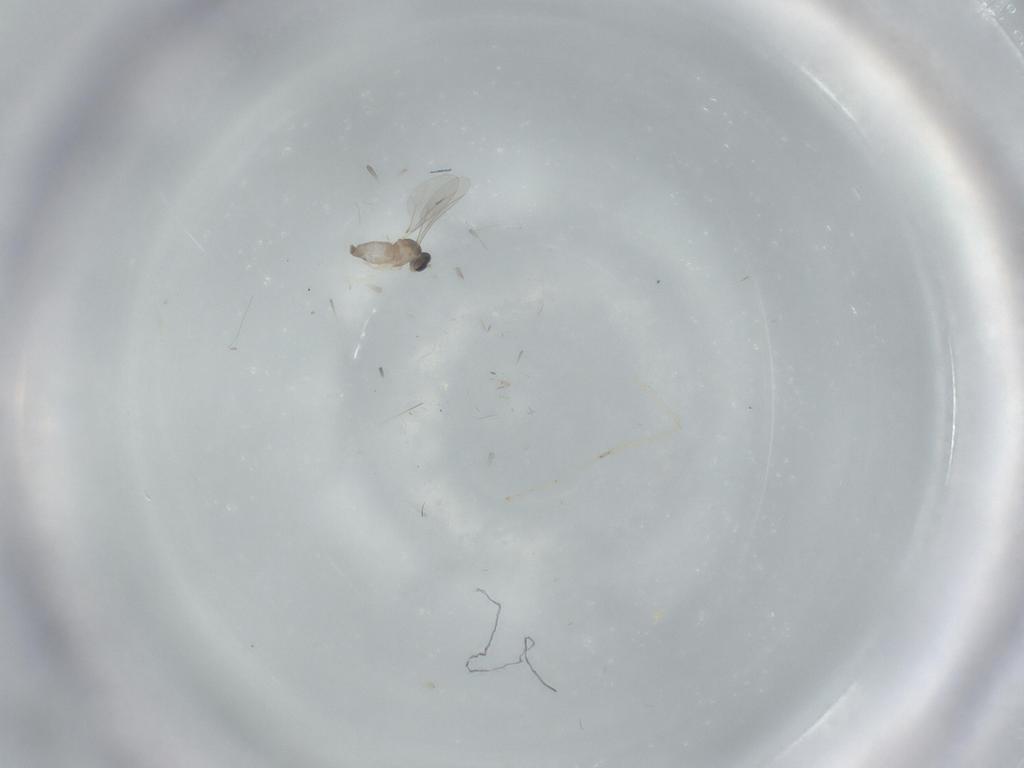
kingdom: Animalia
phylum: Arthropoda
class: Insecta
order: Diptera
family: Cecidomyiidae
